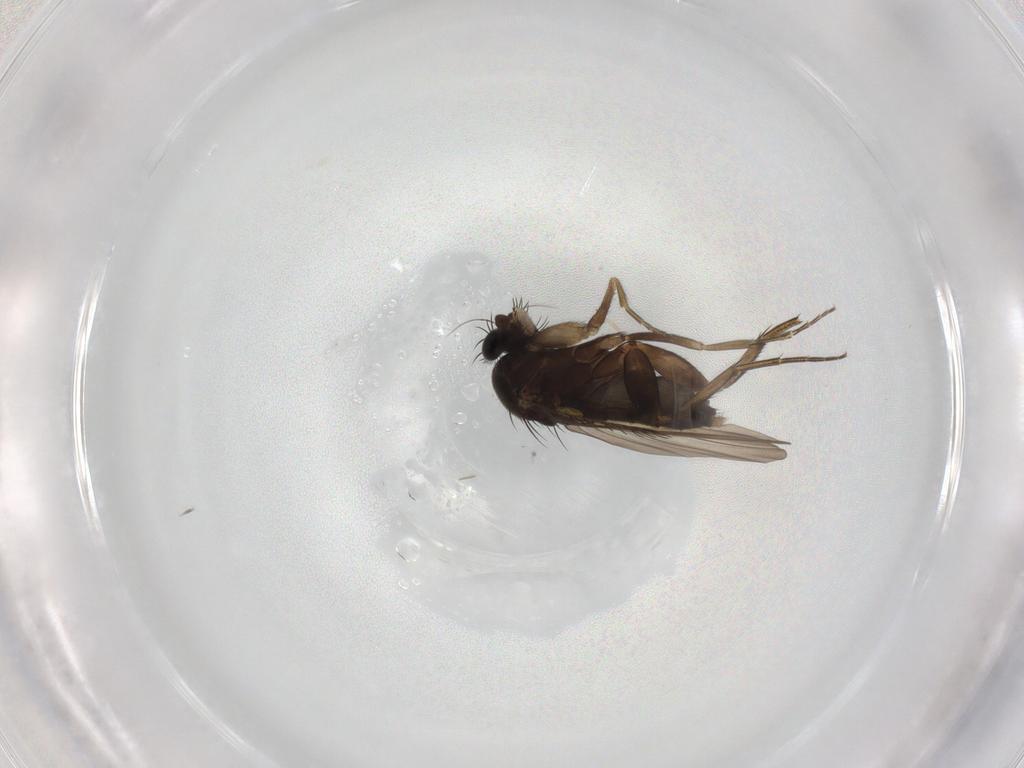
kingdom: Animalia
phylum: Arthropoda
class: Insecta
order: Diptera
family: Phoridae
